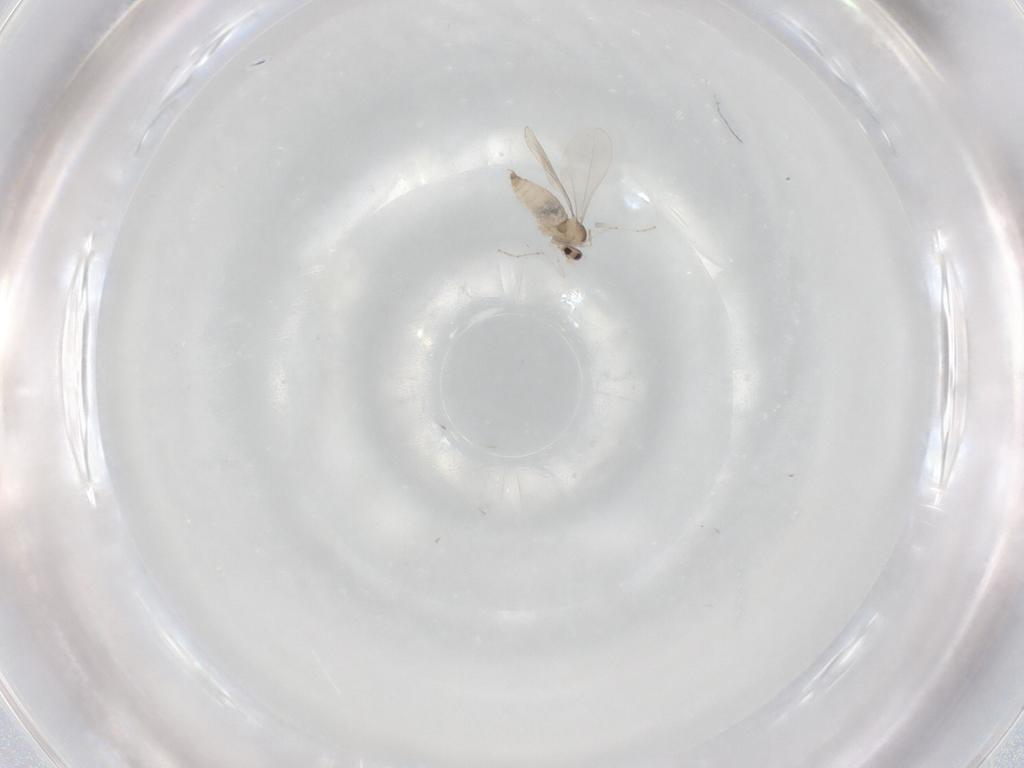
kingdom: Animalia
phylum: Arthropoda
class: Insecta
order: Diptera
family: Cecidomyiidae
